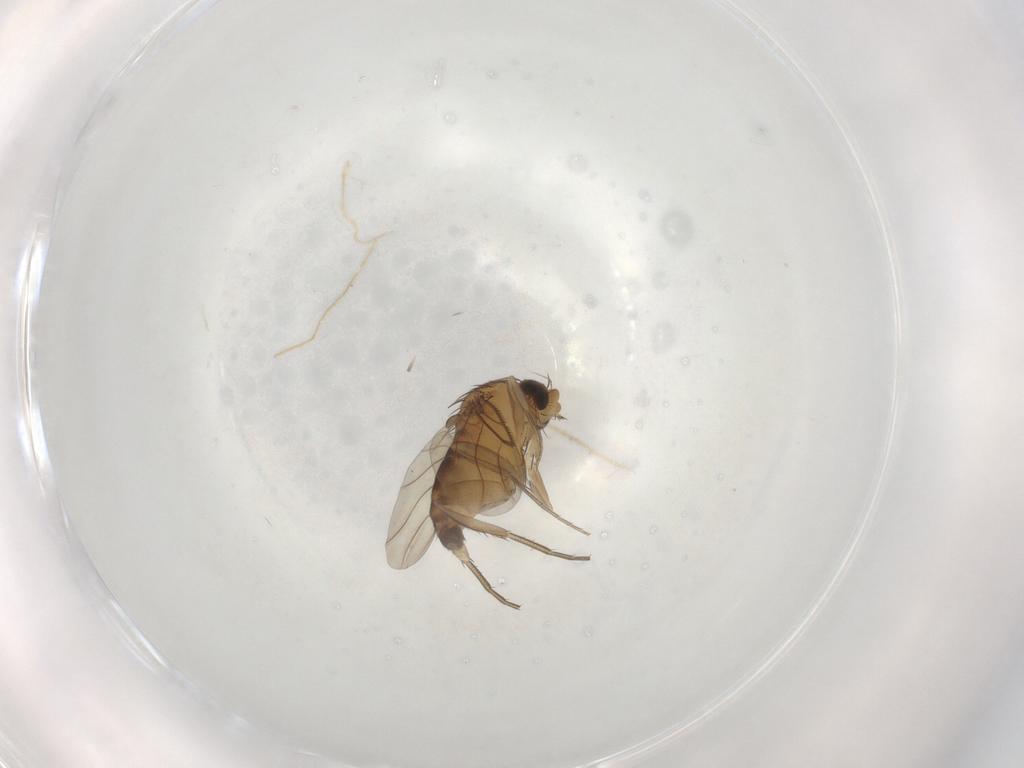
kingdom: Animalia
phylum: Arthropoda
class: Insecta
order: Diptera
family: Phoridae
